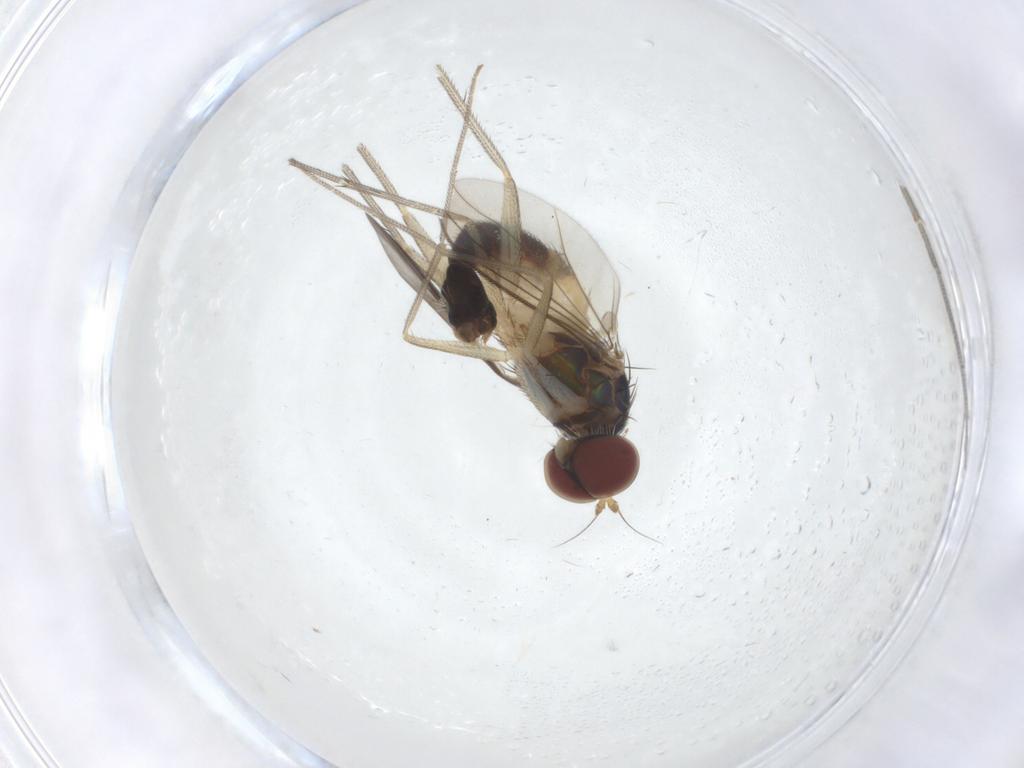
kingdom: Animalia
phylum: Arthropoda
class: Insecta
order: Diptera
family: Dolichopodidae
